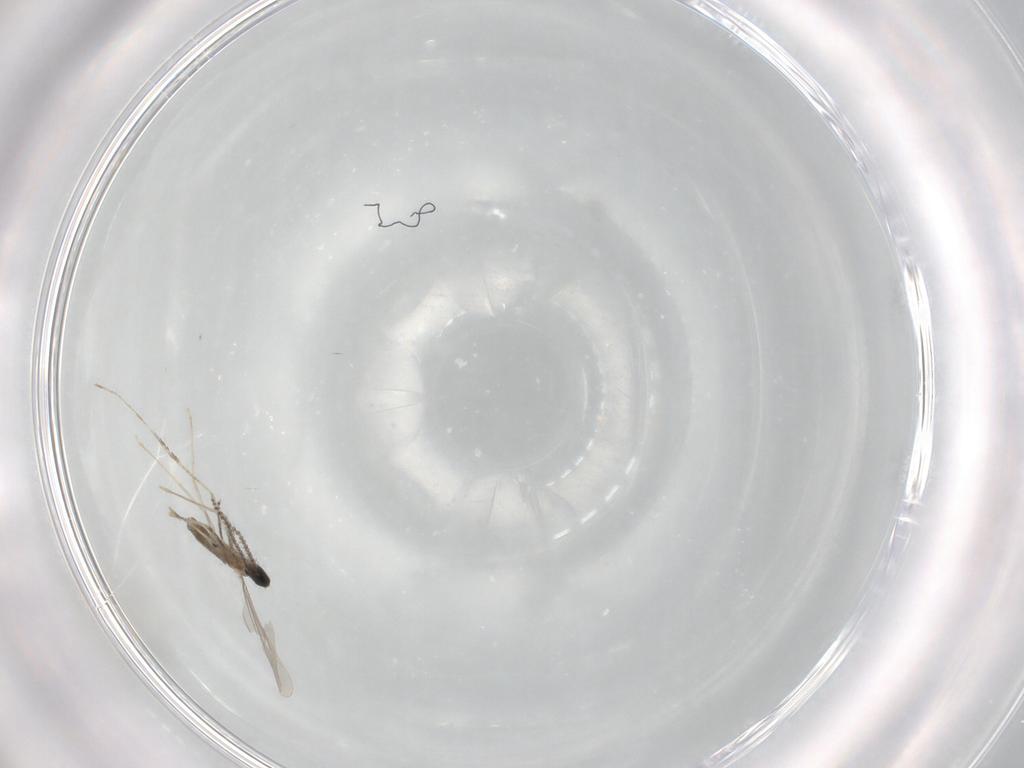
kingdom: Animalia
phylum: Arthropoda
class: Insecta
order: Diptera
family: Cecidomyiidae
